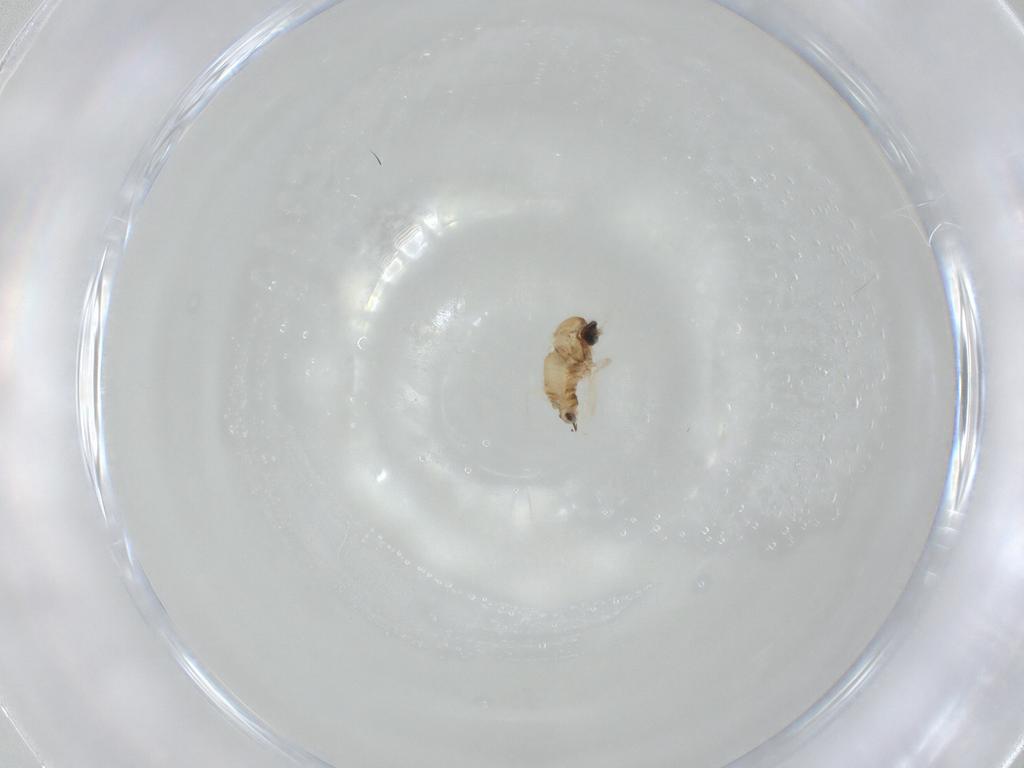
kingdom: Animalia
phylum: Arthropoda
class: Insecta
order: Diptera
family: Cecidomyiidae
